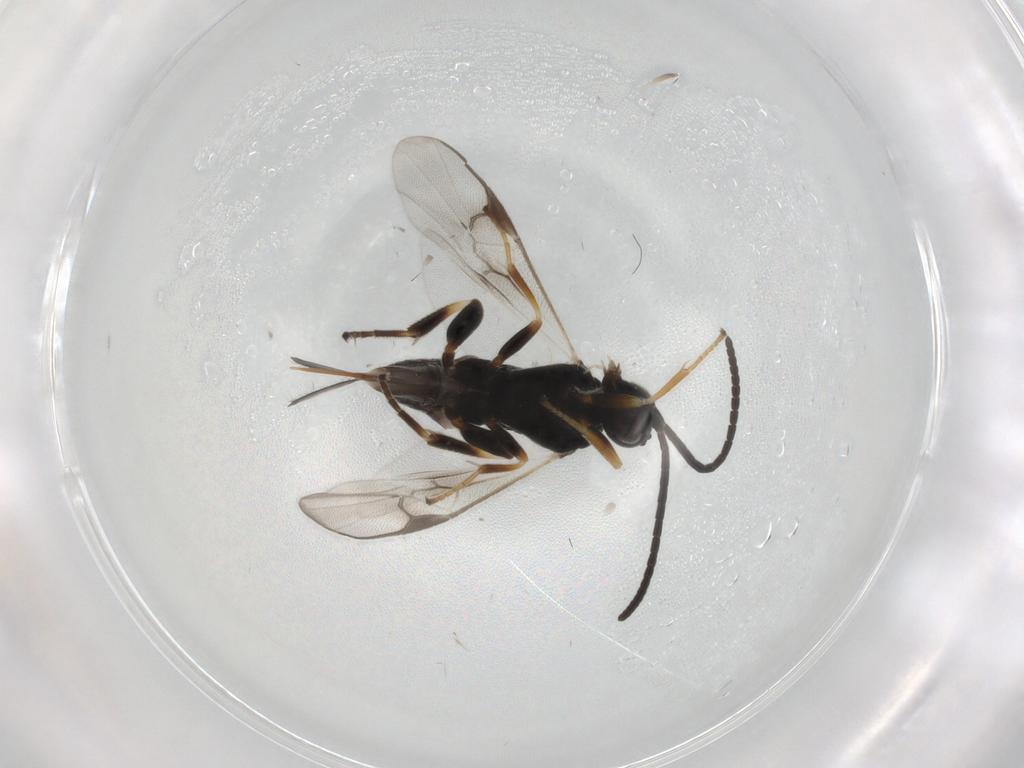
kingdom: Animalia
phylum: Arthropoda
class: Insecta
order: Hymenoptera
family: Braconidae
